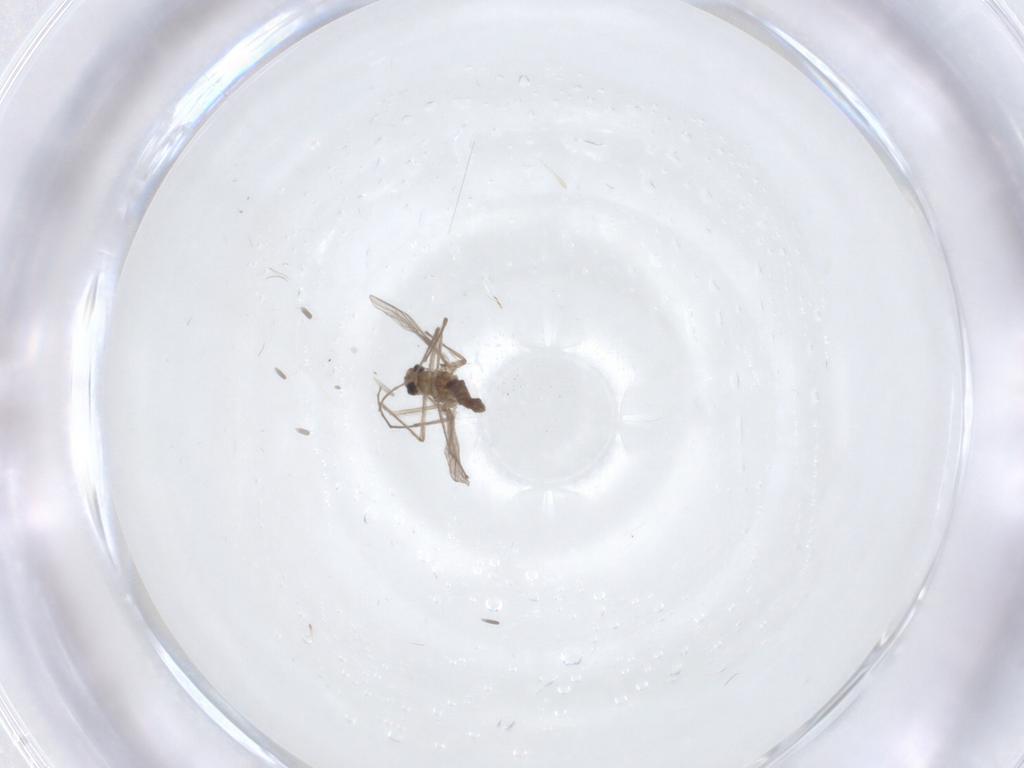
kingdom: Animalia
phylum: Arthropoda
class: Insecta
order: Diptera
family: Chironomidae
